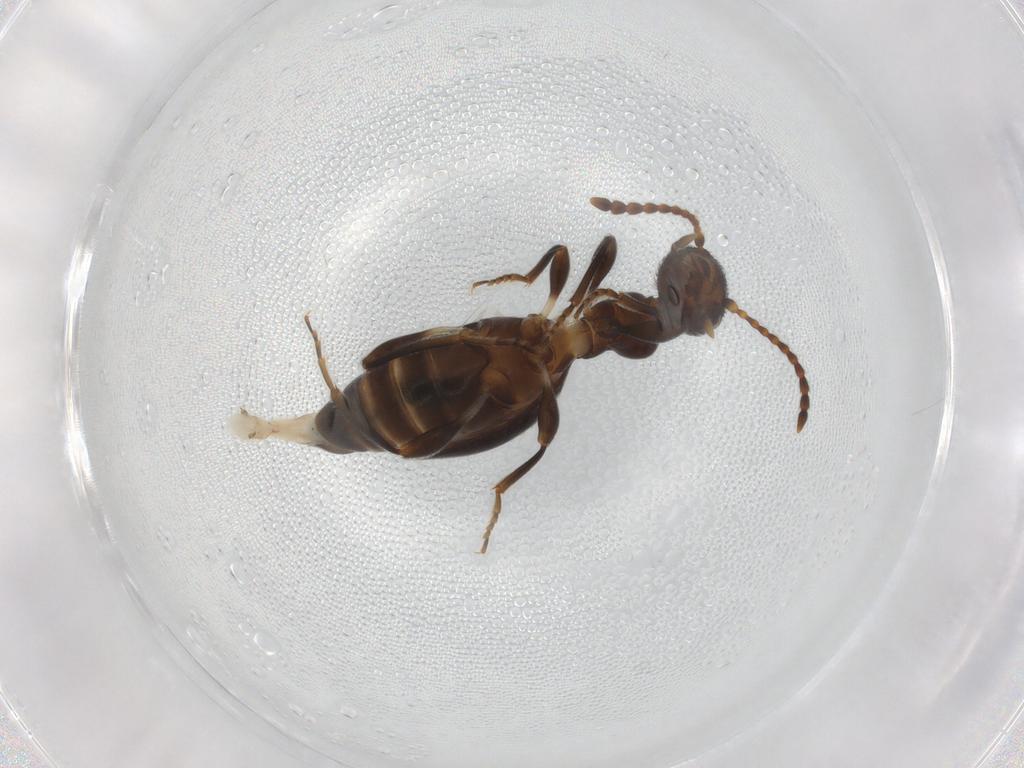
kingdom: Animalia
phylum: Arthropoda
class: Insecta
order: Coleoptera
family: Anthicidae
